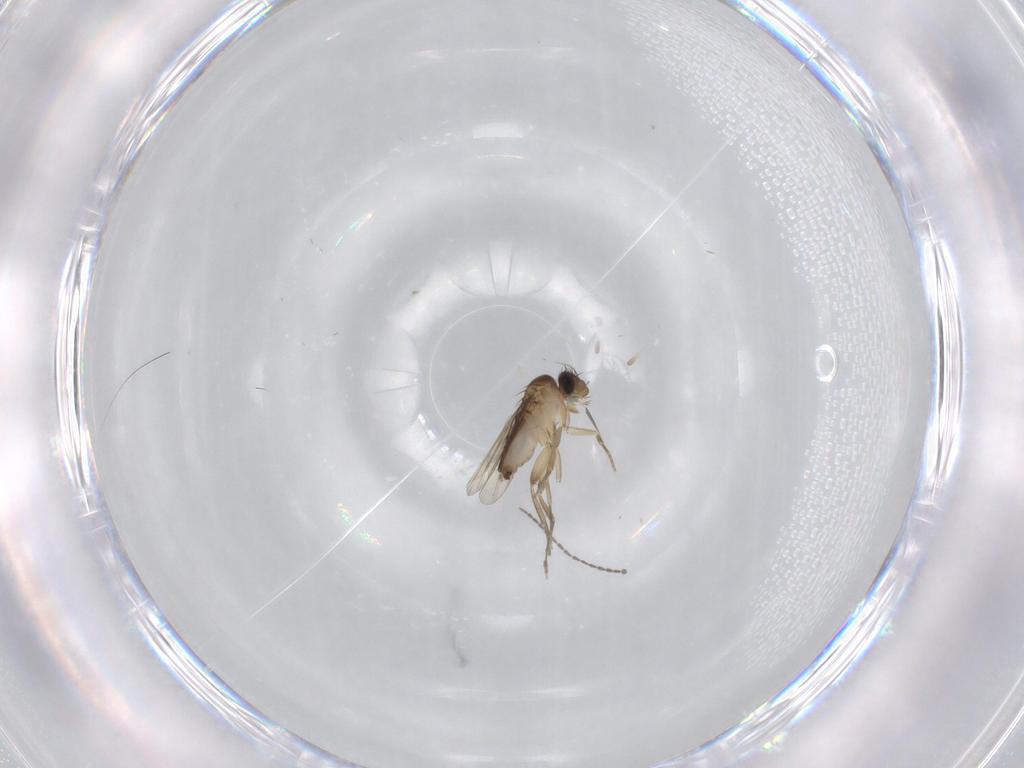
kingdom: Animalia
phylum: Arthropoda
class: Insecta
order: Diptera
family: Phoridae
